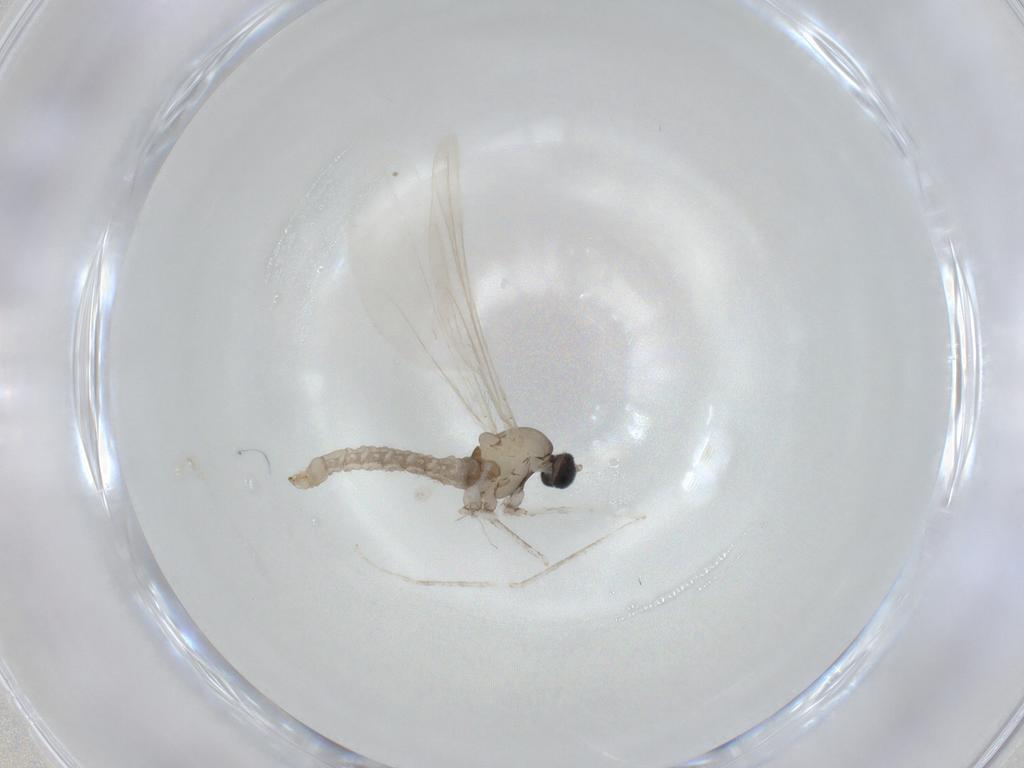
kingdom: Animalia
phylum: Arthropoda
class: Insecta
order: Diptera
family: Cecidomyiidae
